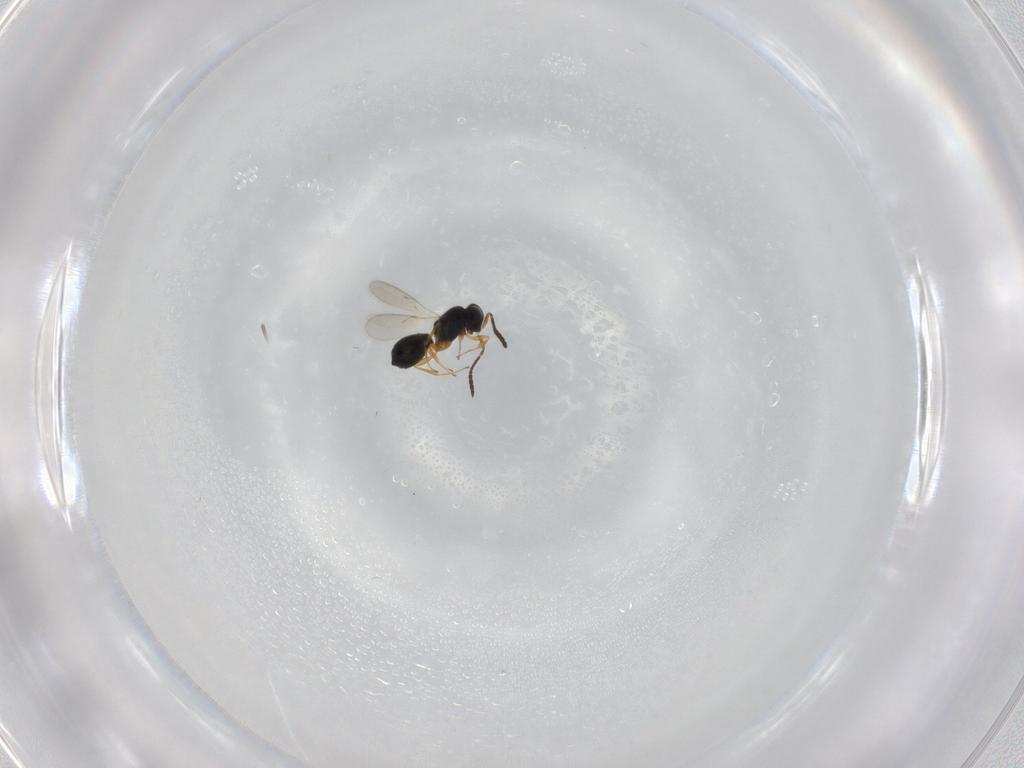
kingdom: Animalia
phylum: Arthropoda
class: Insecta
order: Hymenoptera
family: Scelionidae
